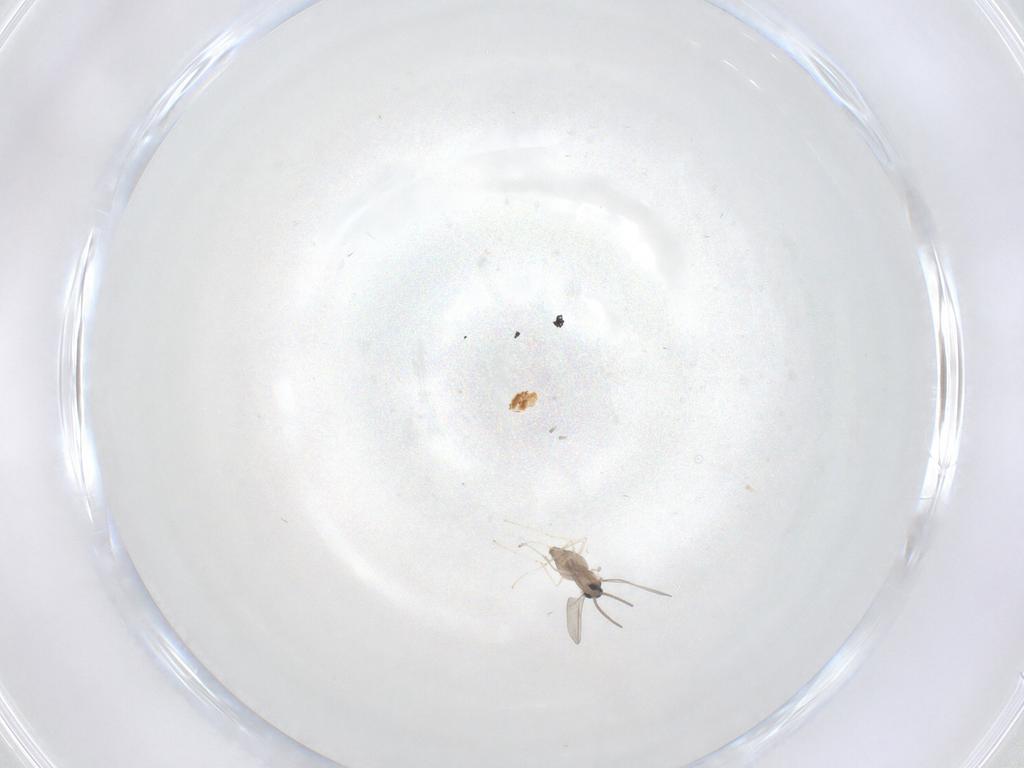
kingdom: Animalia
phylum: Arthropoda
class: Insecta
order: Diptera
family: Cecidomyiidae
